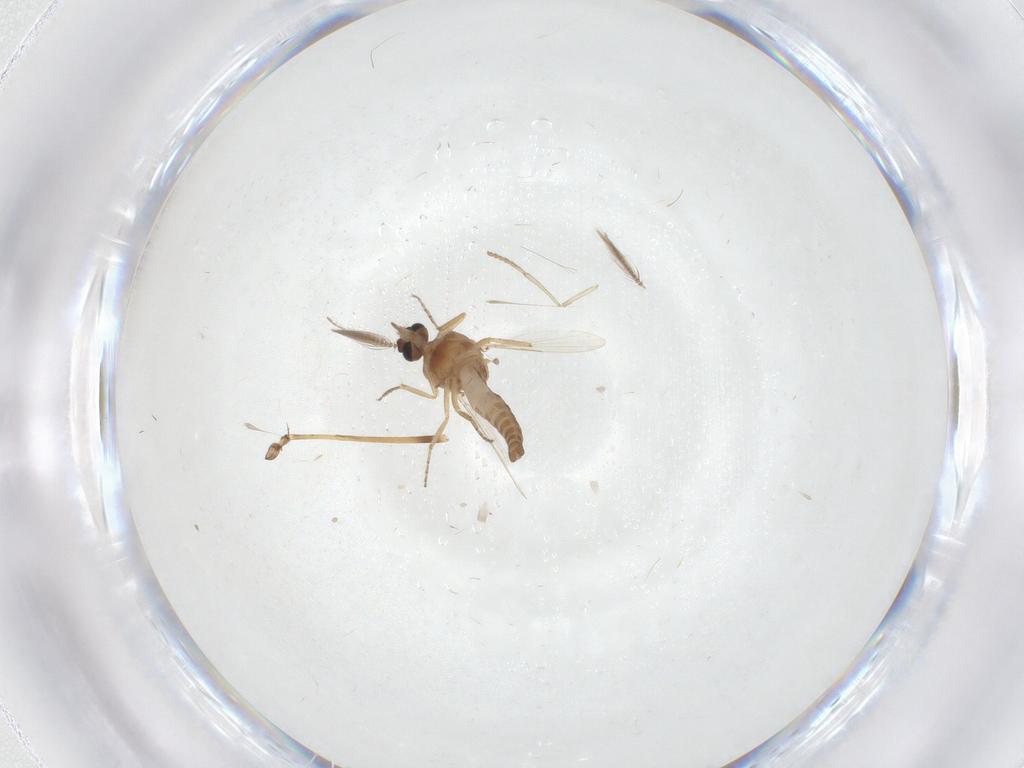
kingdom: Animalia
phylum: Arthropoda
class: Insecta
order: Diptera
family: Ceratopogonidae
